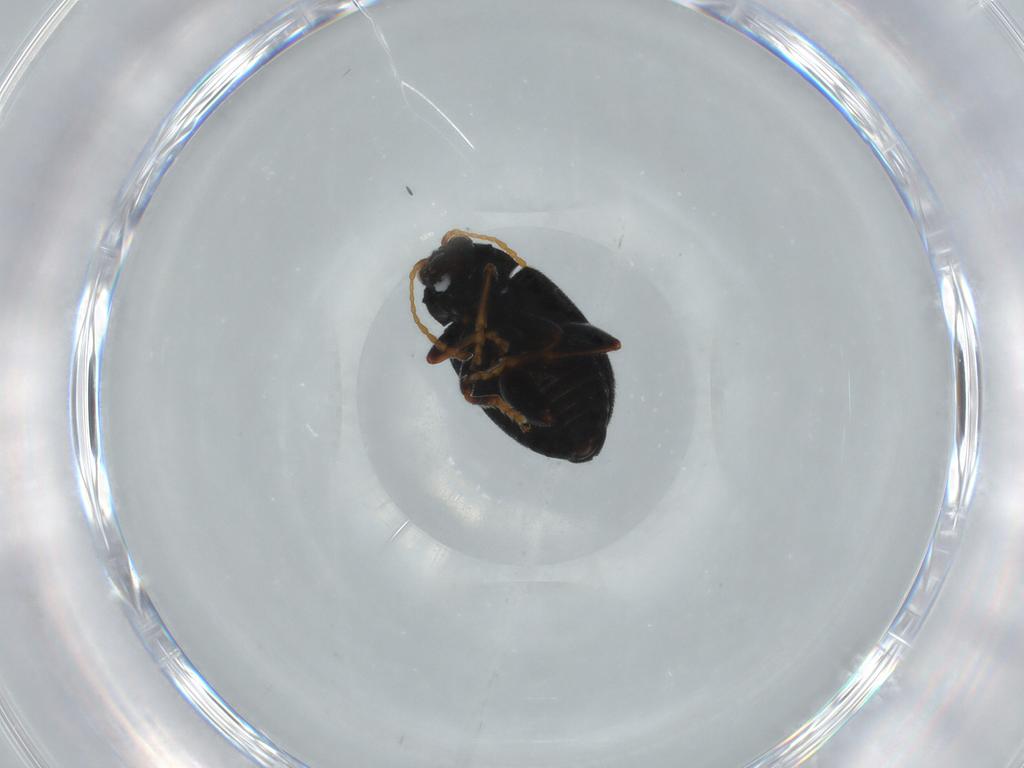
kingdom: Animalia
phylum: Arthropoda
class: Insecta
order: Coleoptera
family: Chrysomelidae
